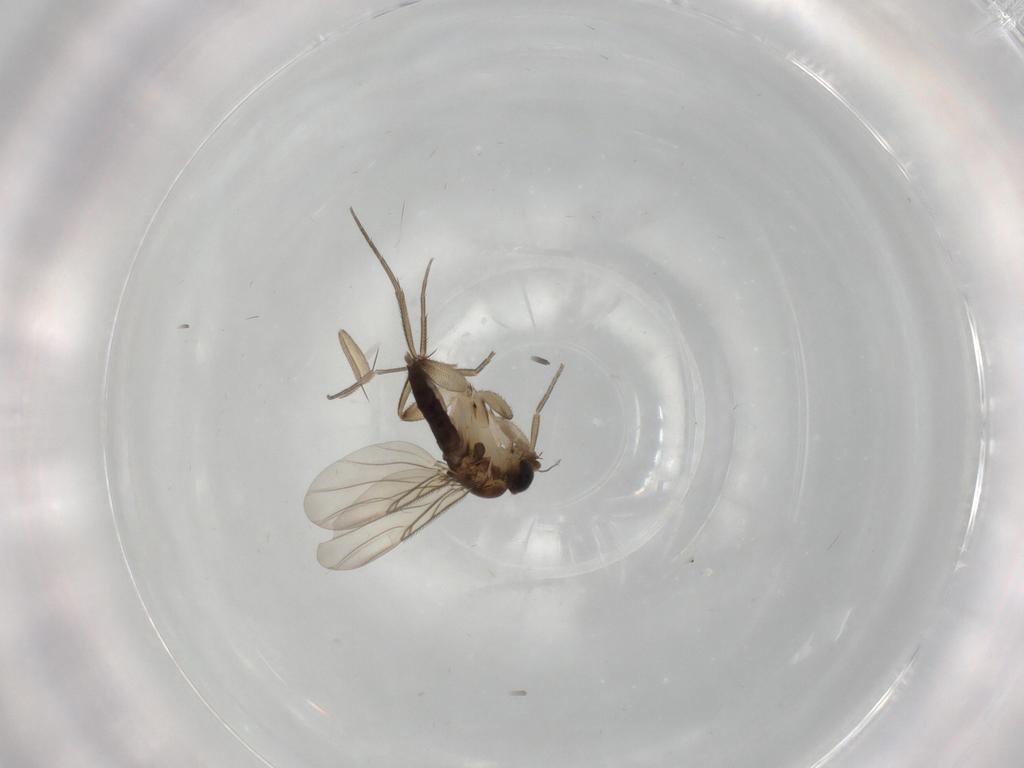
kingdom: Animalia
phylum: Arthropoda
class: Insecta
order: Diptera
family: Phoridae
